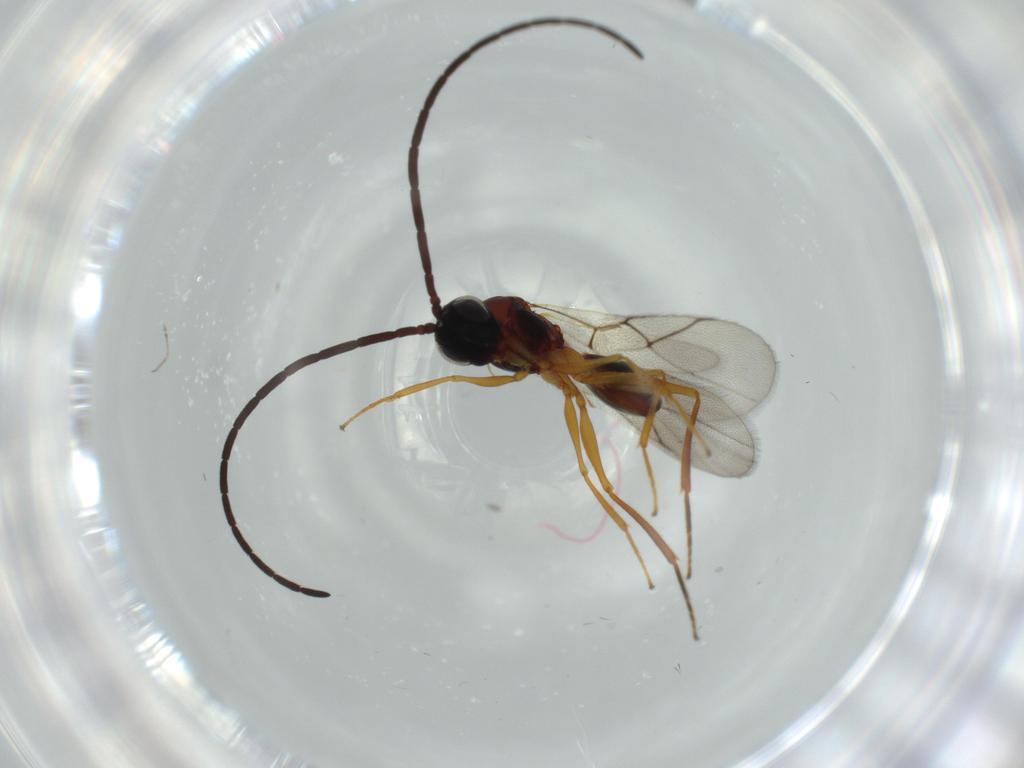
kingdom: Animalia
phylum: Arthropoda
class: Insecta
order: Hymenoptera
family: Figitidae
